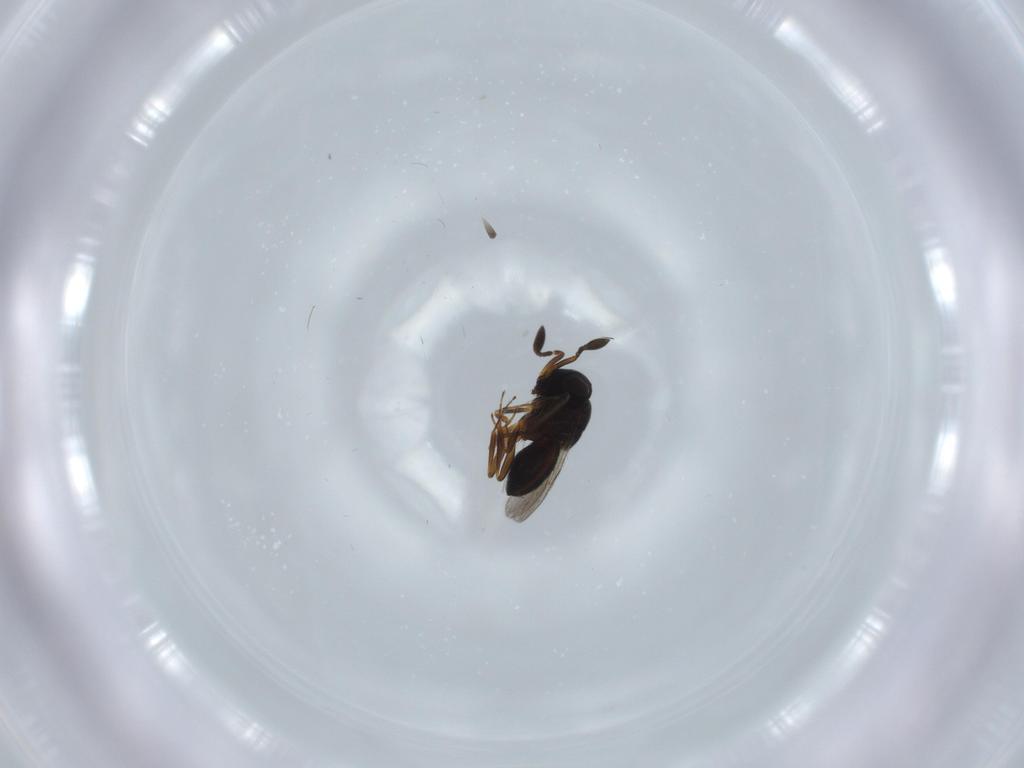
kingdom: Animalia
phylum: Arthropoda
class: Insecta
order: Hymenoptera
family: Scelionidae
